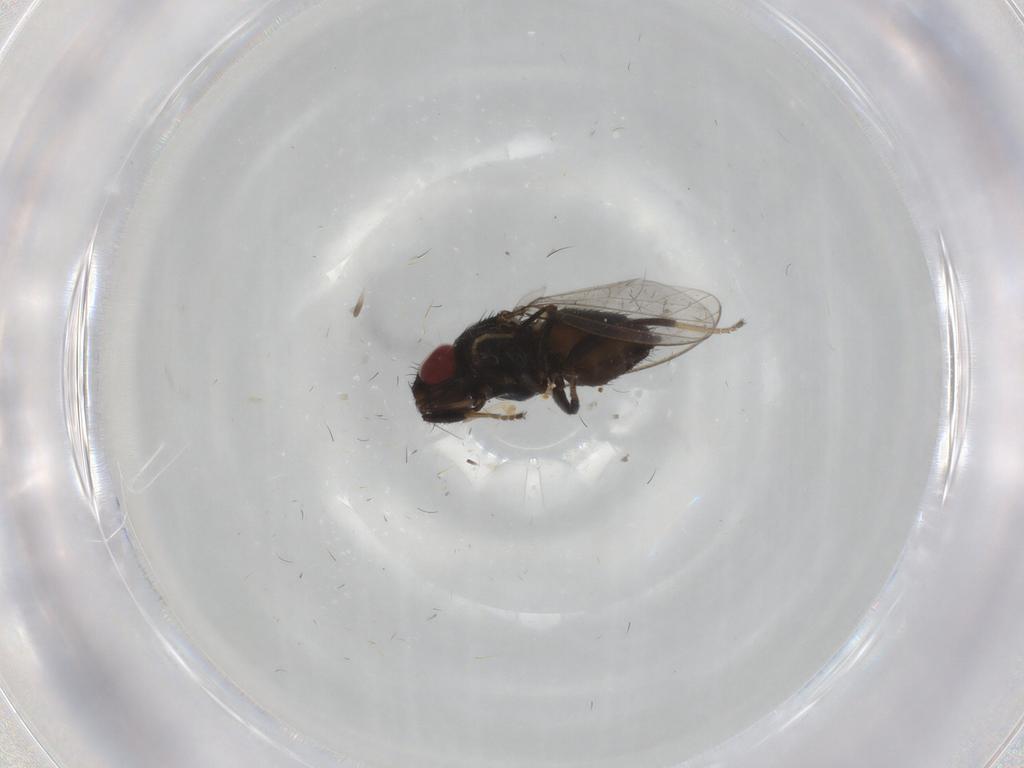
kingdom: Animalia
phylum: Arthropoda
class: Insecta
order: Diptera
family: Milichiidae
